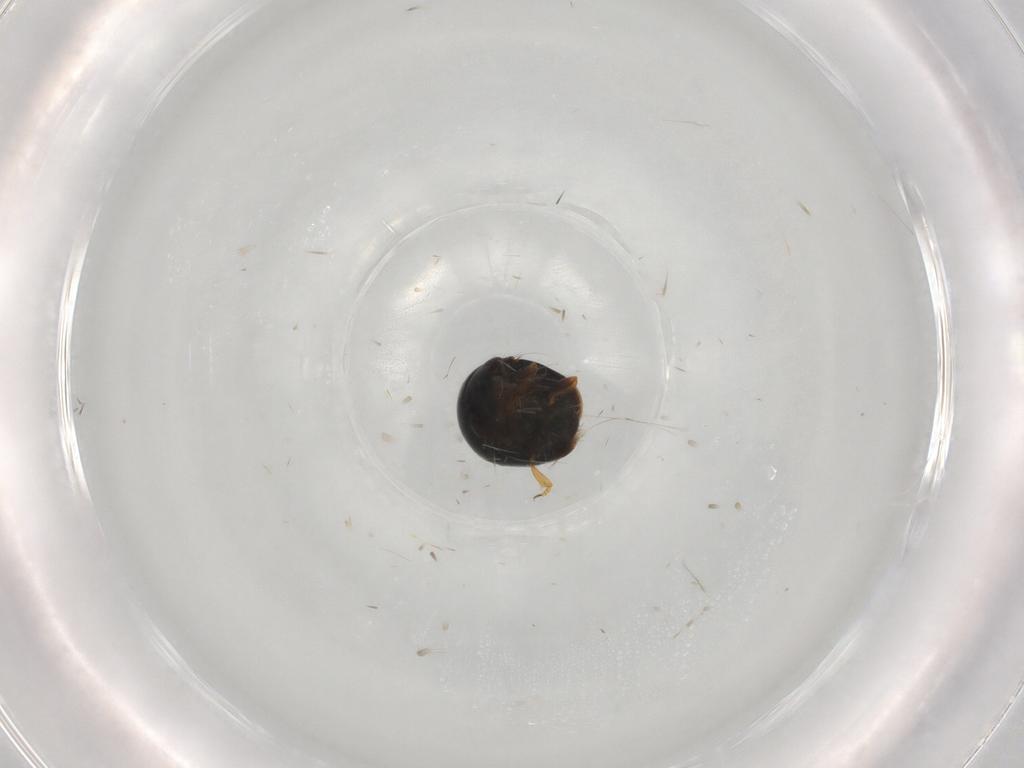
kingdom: Animalia
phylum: Arthropoda
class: Insecta
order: Coleoptera
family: Cybocephalidae
